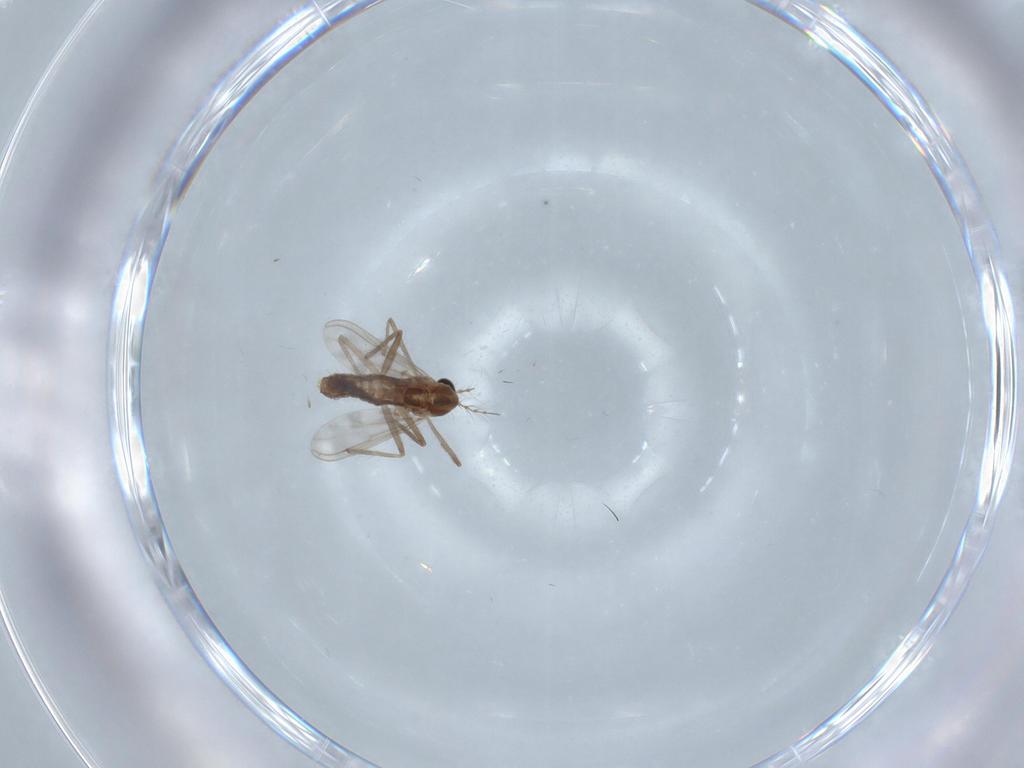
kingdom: Animalia
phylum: Arthropoda
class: Insecta
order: Diptera
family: Chironomidae
